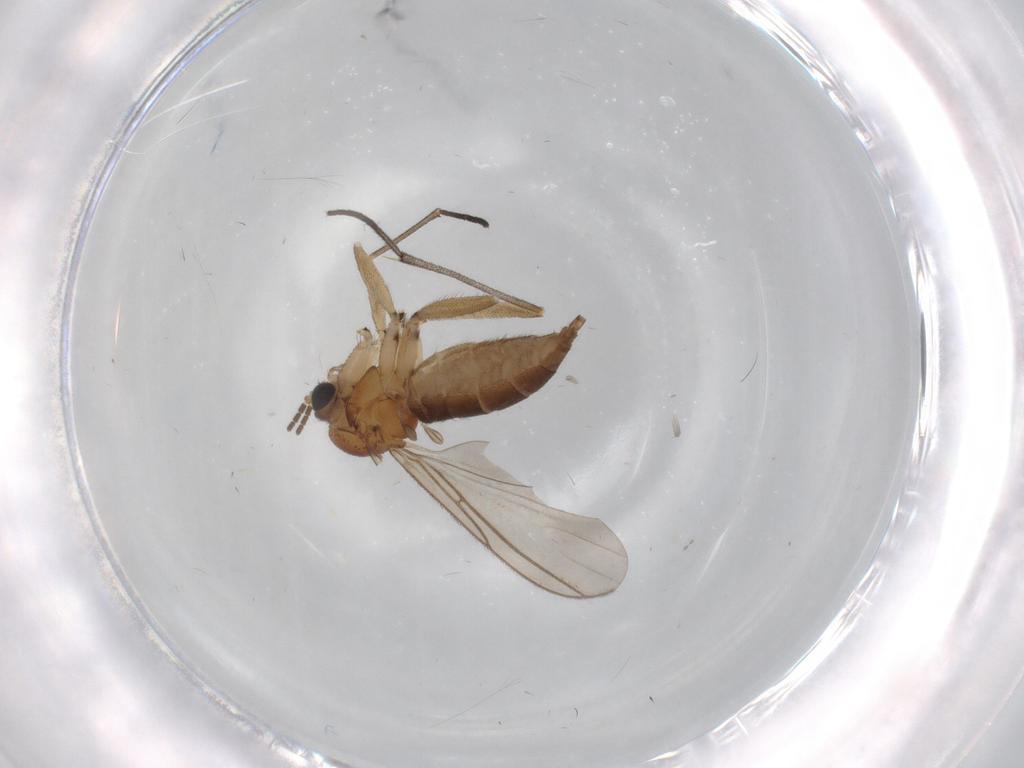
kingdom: Animalia
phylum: Arthropoda
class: Insecta
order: Diptera
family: Sciaridae
